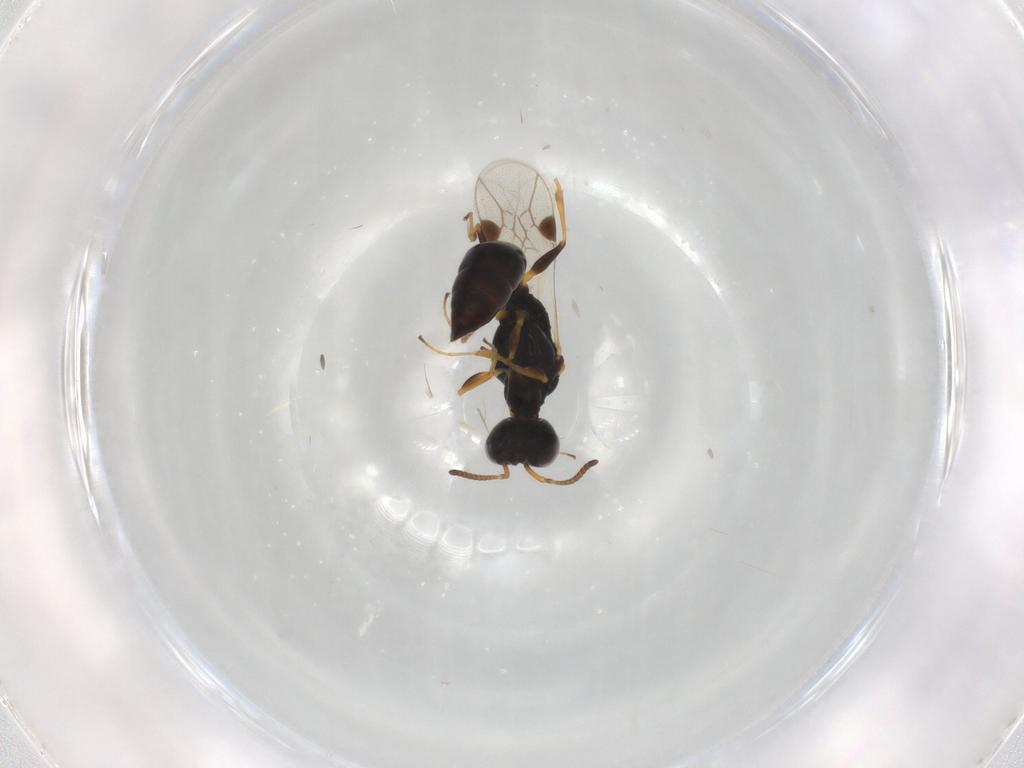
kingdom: Animalia
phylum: Arthropoda
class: Insecta
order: Hymenoptera
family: Crabronidae
